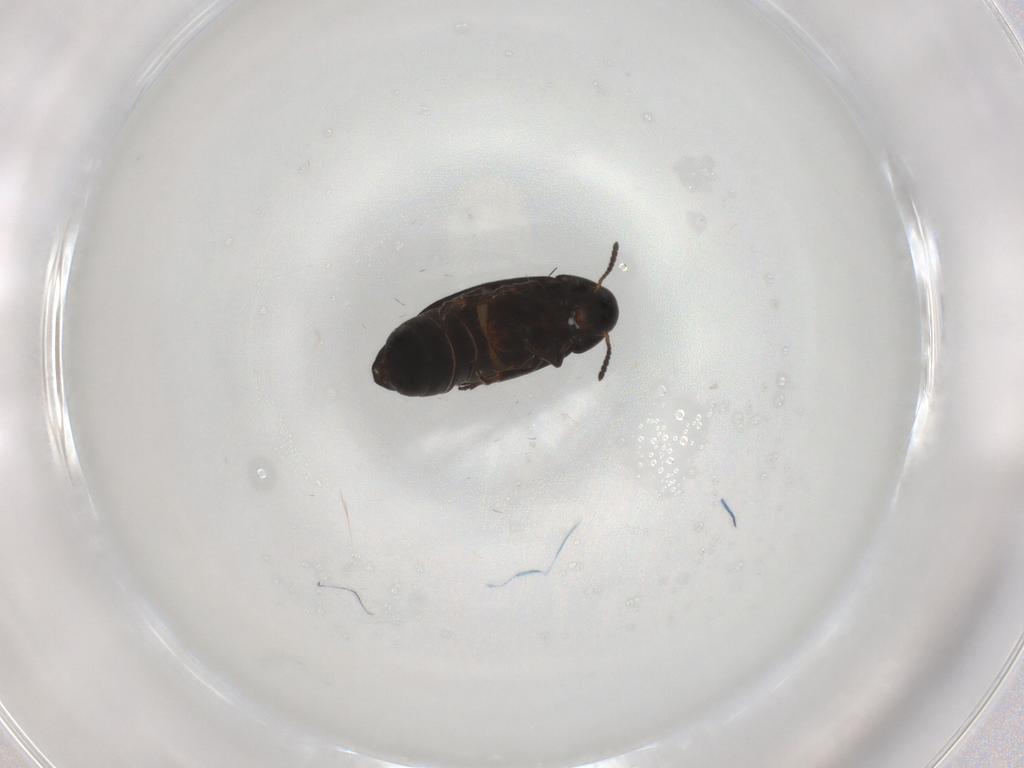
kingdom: Animalia
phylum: Arthropoda
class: Insecta
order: Coleoptera
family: Scraptiidae
